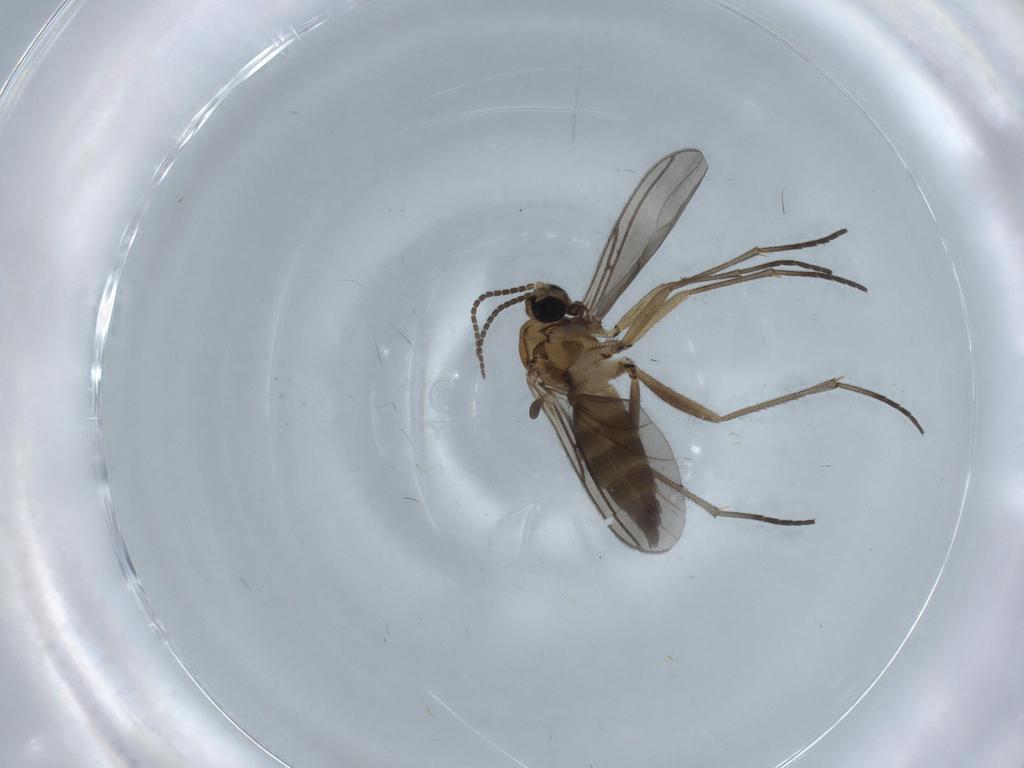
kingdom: Animalia
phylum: Arthropoda
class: Insecta
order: Diptera
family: Sciaridae
